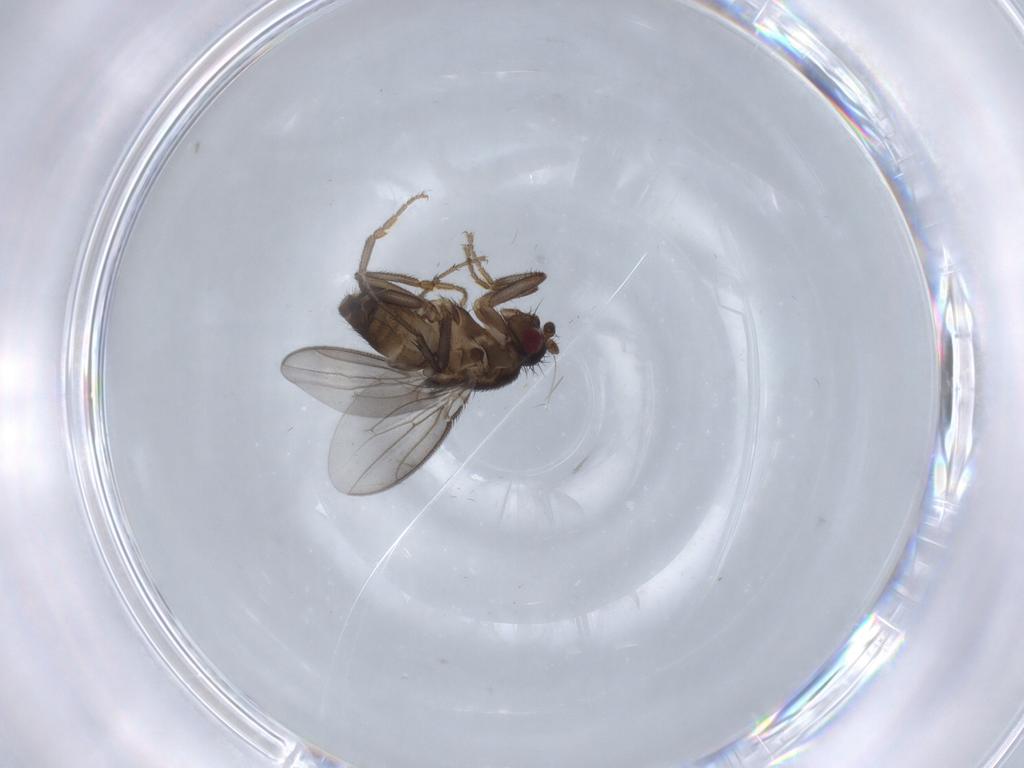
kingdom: Animalia
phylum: Arthropoda
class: Insecta
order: Diptera
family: Sphaeroceridae
